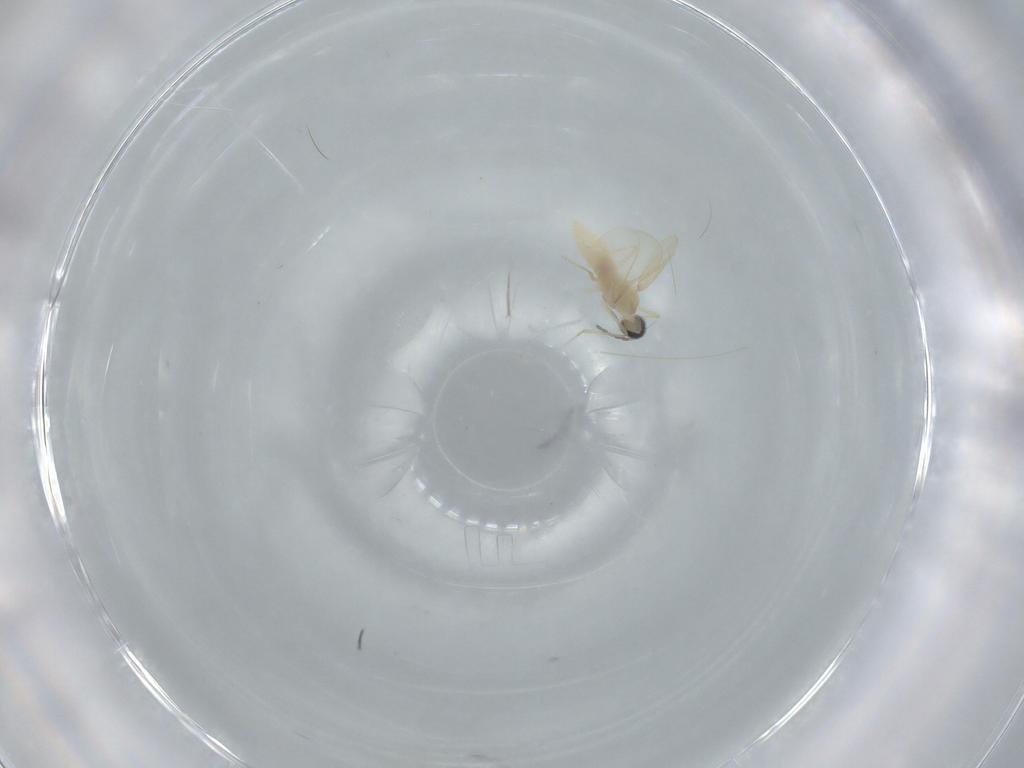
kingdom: Animalia
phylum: Arthropoda
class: Insecta
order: Diptera
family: Cecidomyiidae
